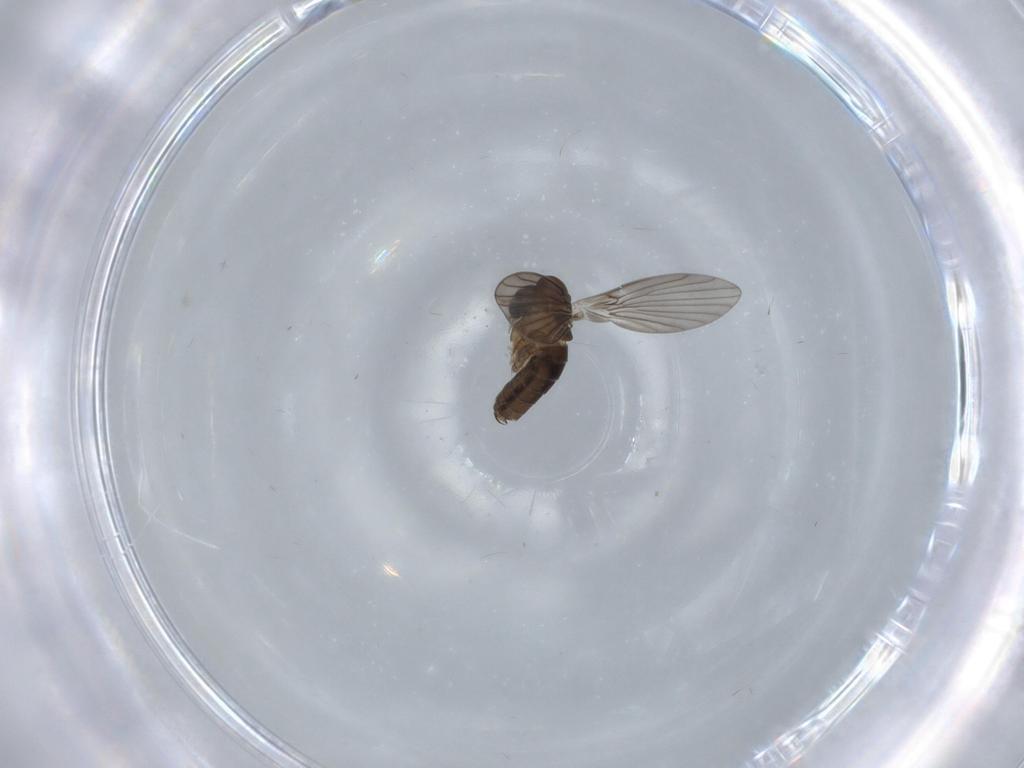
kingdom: Animalia
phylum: Arthropoda
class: Insecta
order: Diptera
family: Psychodidae
